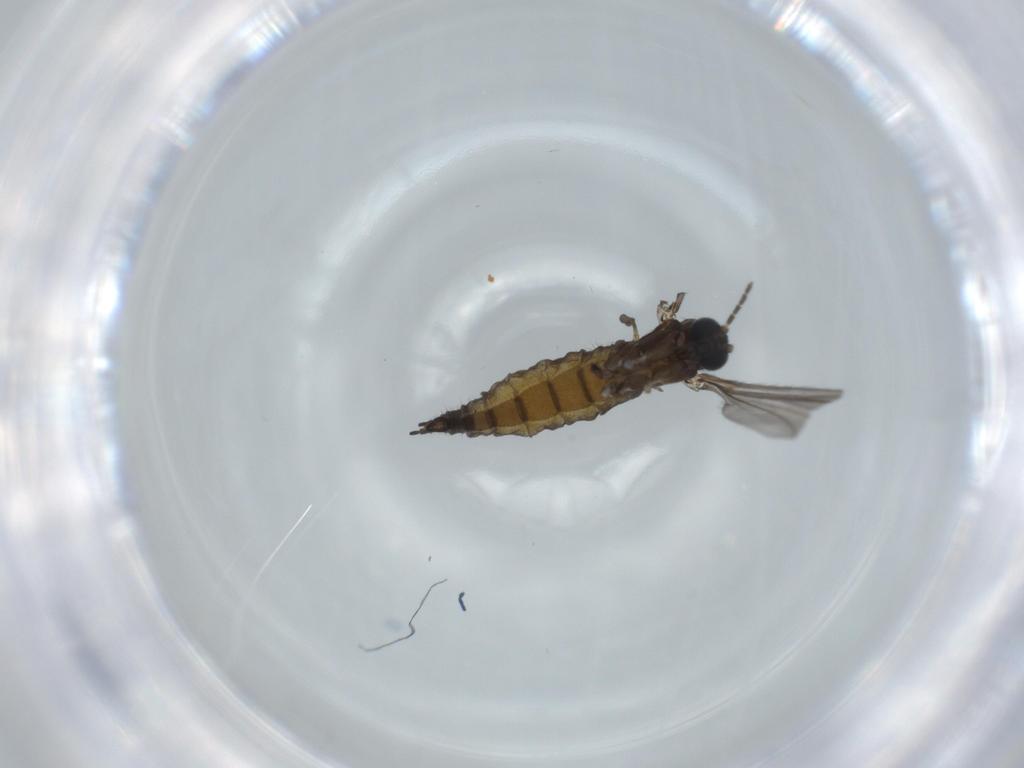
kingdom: Animalia
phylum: Arthropoda
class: Insecta
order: Diptera
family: Sciaridae
